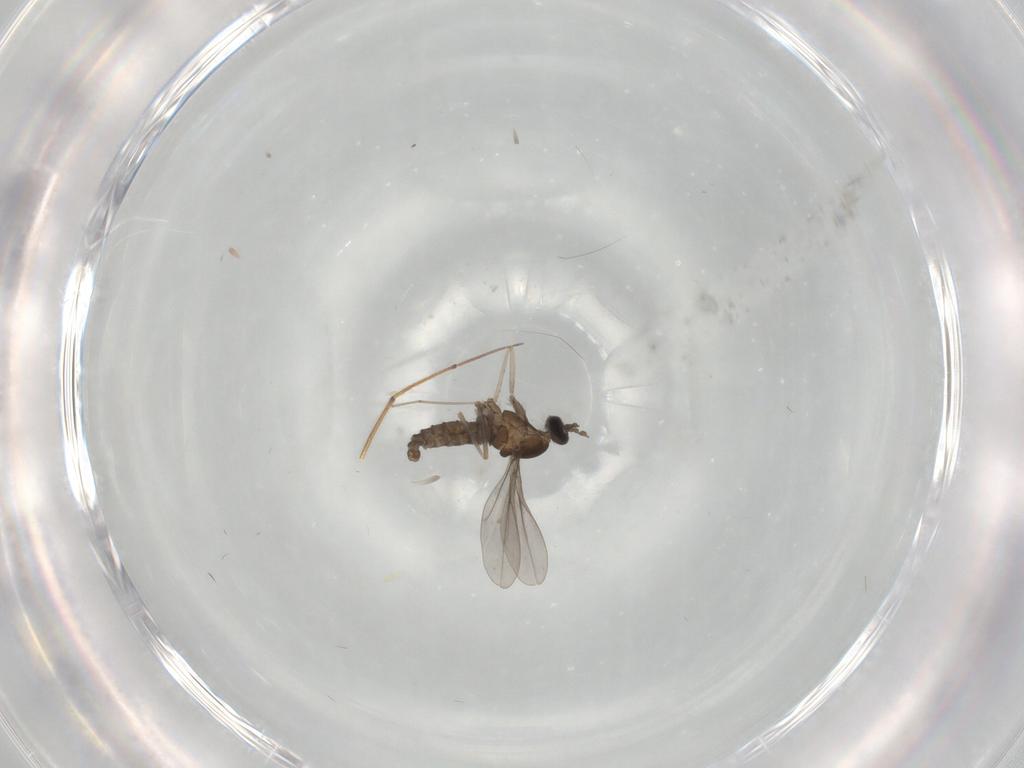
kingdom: Animalia
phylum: Arthropoda
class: Insecta
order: Diptera
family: Cecidomyiidae
